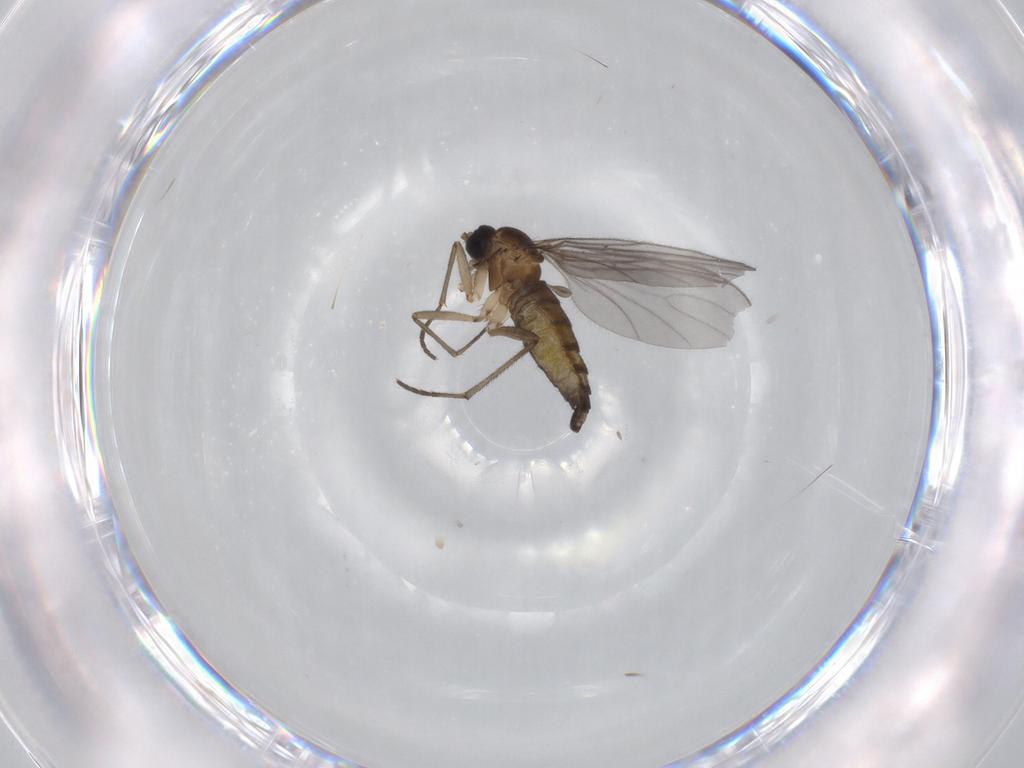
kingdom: Animalia
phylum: Arthropoda
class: Insecta
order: Diptera
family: Sciaridae
